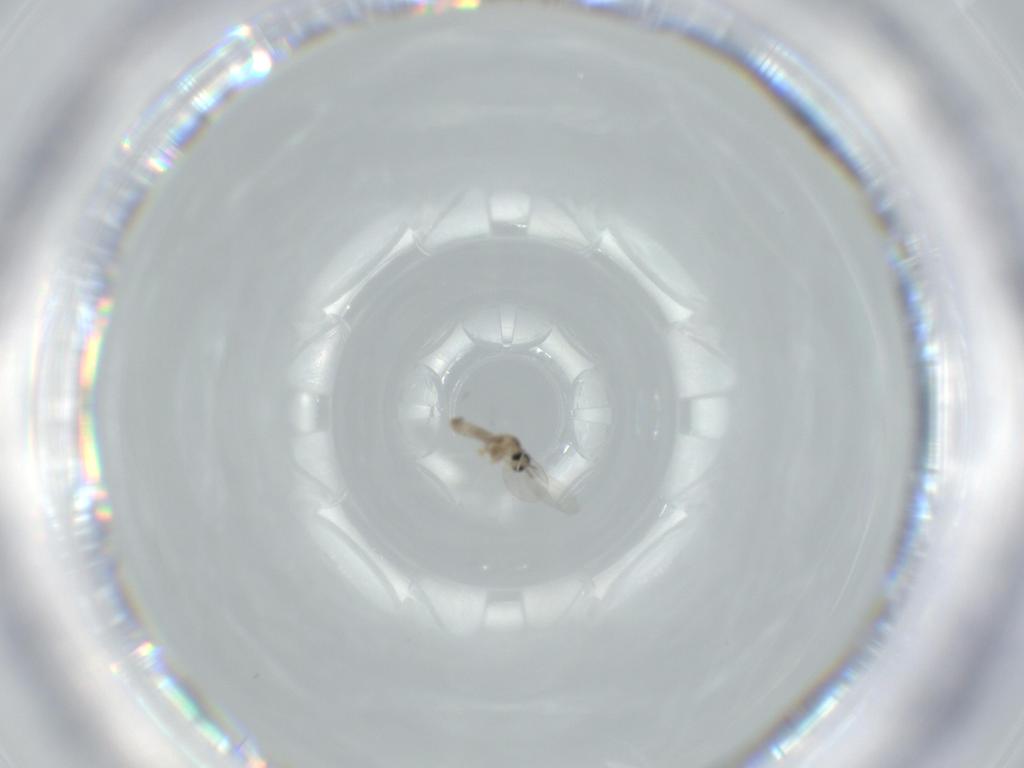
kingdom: Animalia
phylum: Arthropoda
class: Insecta
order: Diptera
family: Cecidomyiidae
